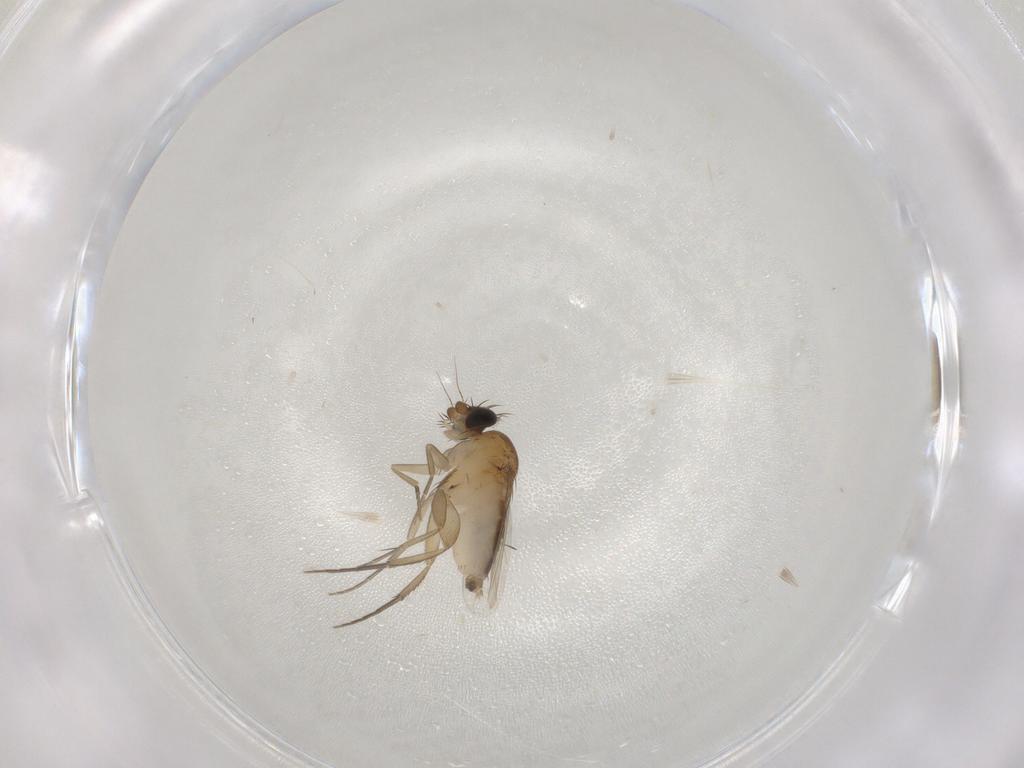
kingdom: Animalia
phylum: Arthropoda
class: Insecta
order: Diptera
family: Phoridae
